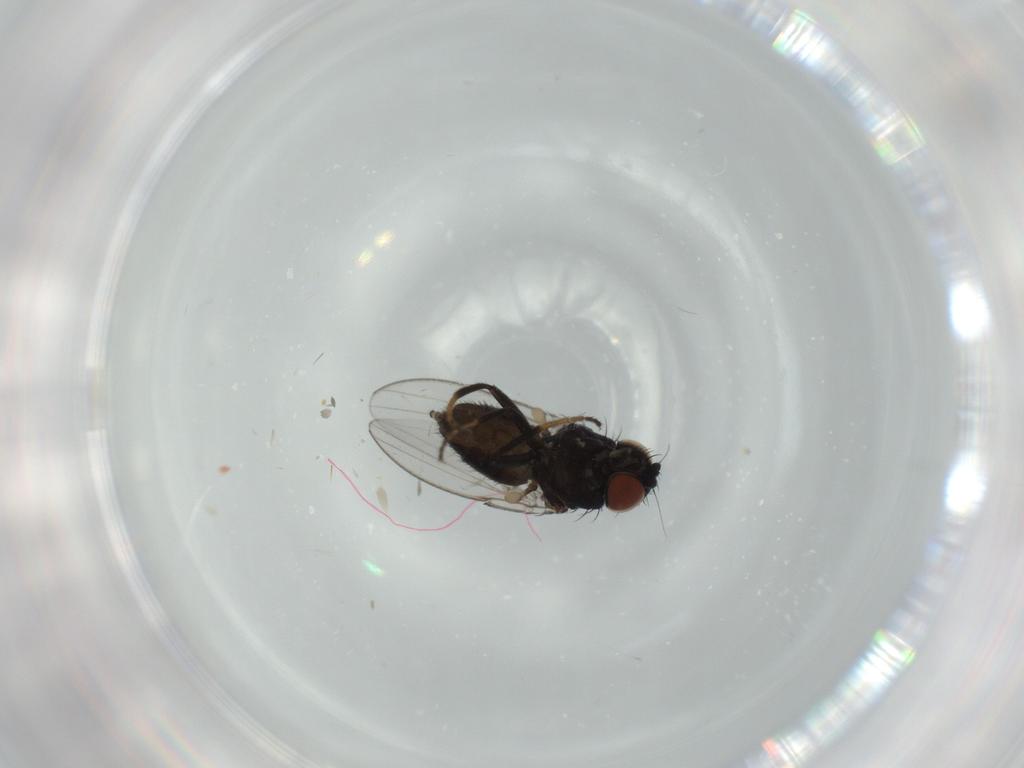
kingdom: Animalia
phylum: Arthropoda
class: Insecta
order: Diptera
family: Milichiidae
